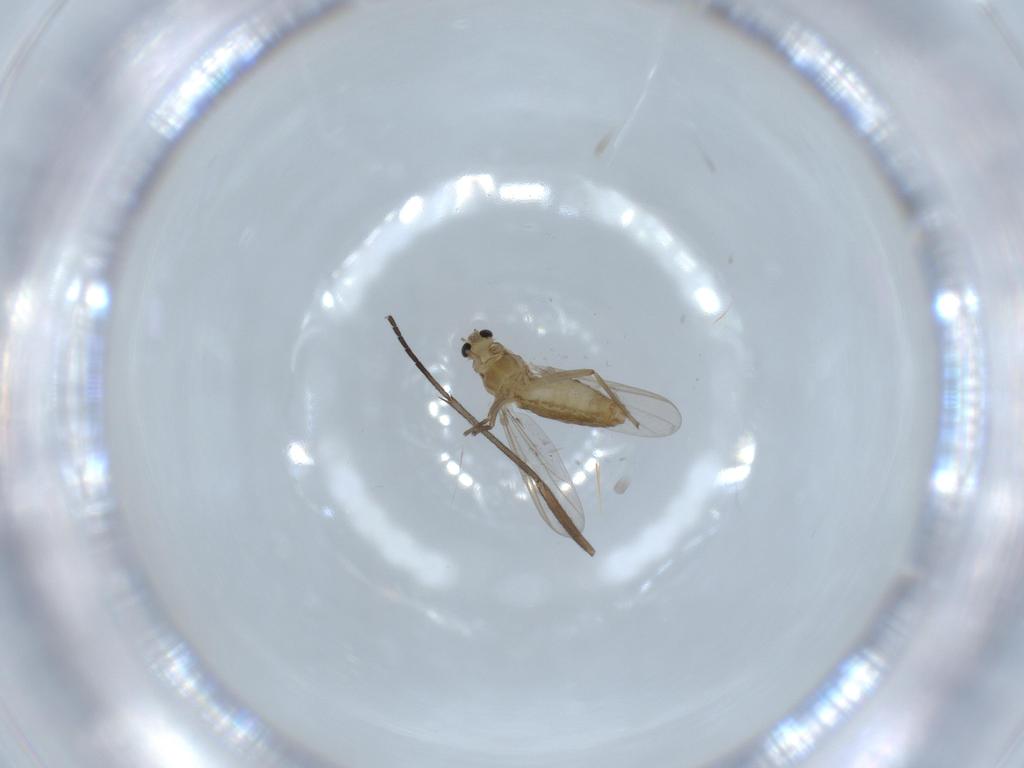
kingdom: Animalia
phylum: Arthropoda
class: Insecta
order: Diptera
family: Chironomidae
